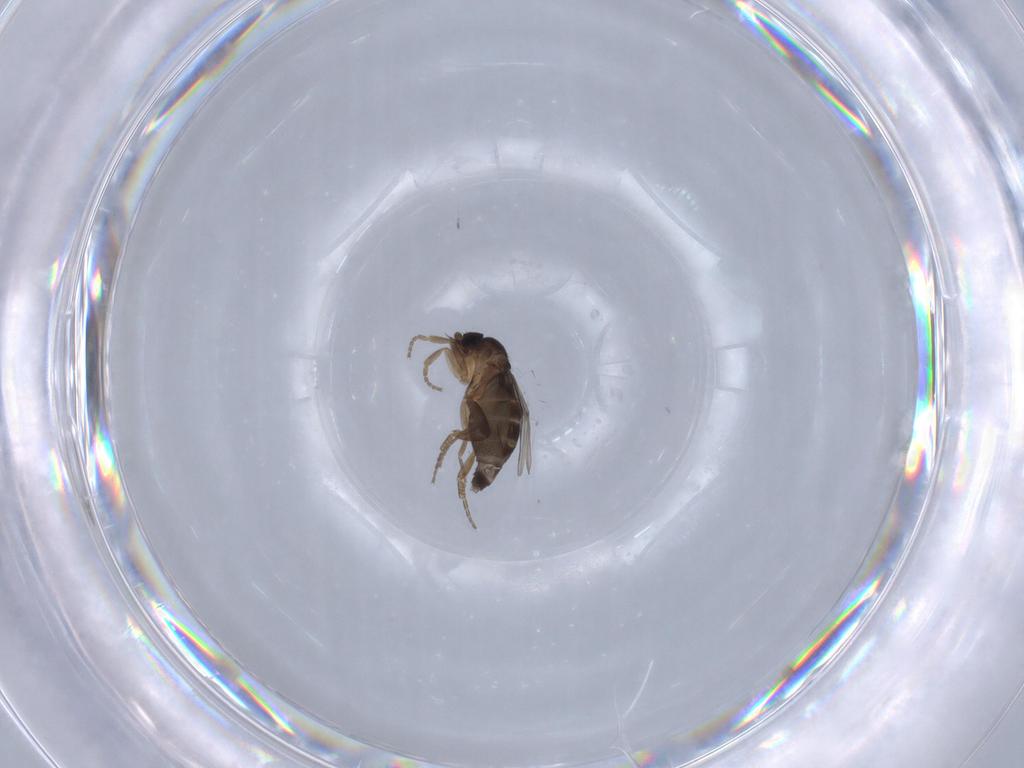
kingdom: Animalia
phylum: Arthropoda
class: Insecta
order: Diptera
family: Phoridae
